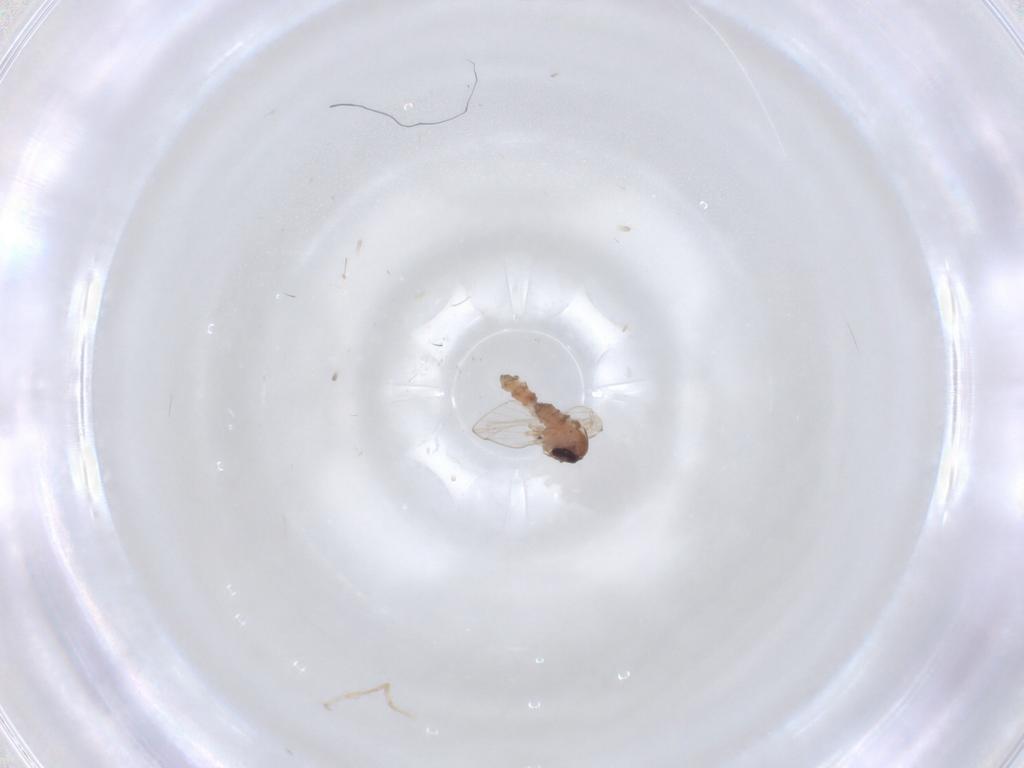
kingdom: Animalia
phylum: Arthropoda
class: Insecta
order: Diptera
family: Psychodidae
